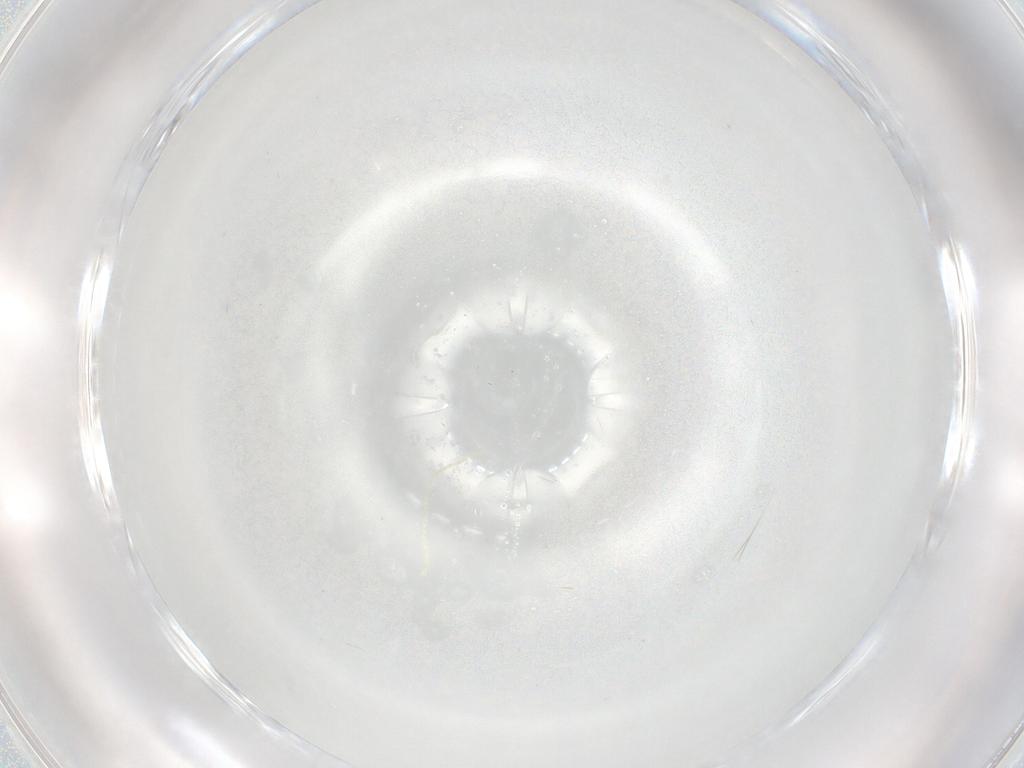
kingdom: Animalia
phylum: Arthropoda
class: Insecta
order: Diptera
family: Cecidomyiidae
